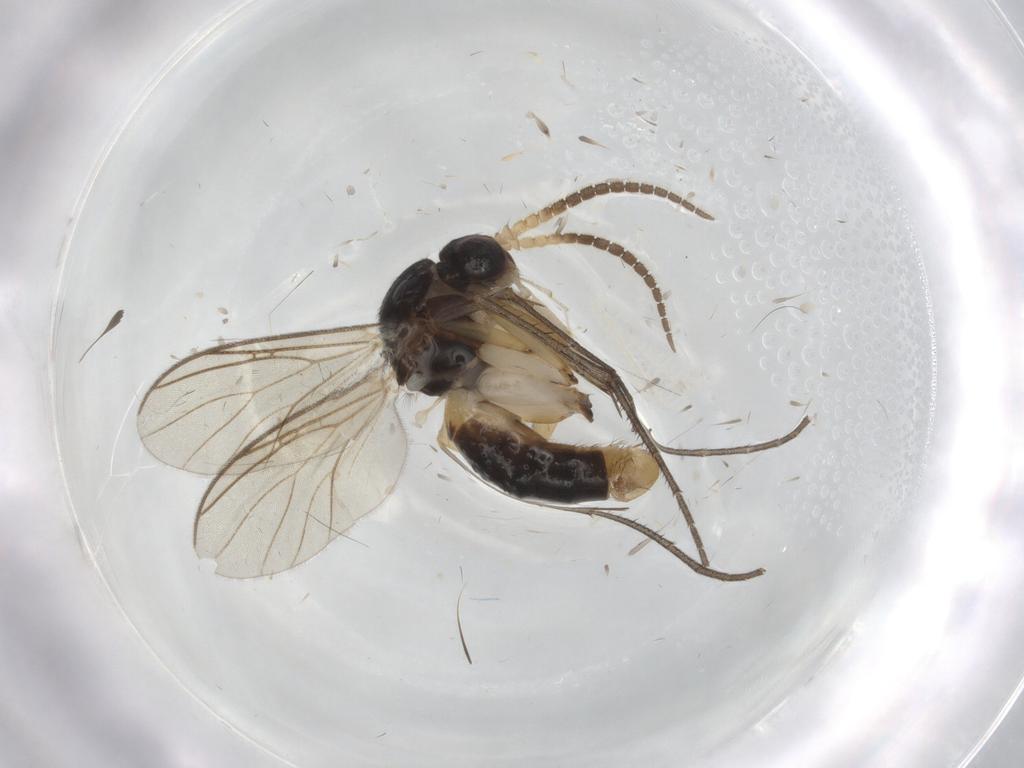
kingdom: Animalia
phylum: Arthropoda
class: Insecta
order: Diptera
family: Mycetophilidae
